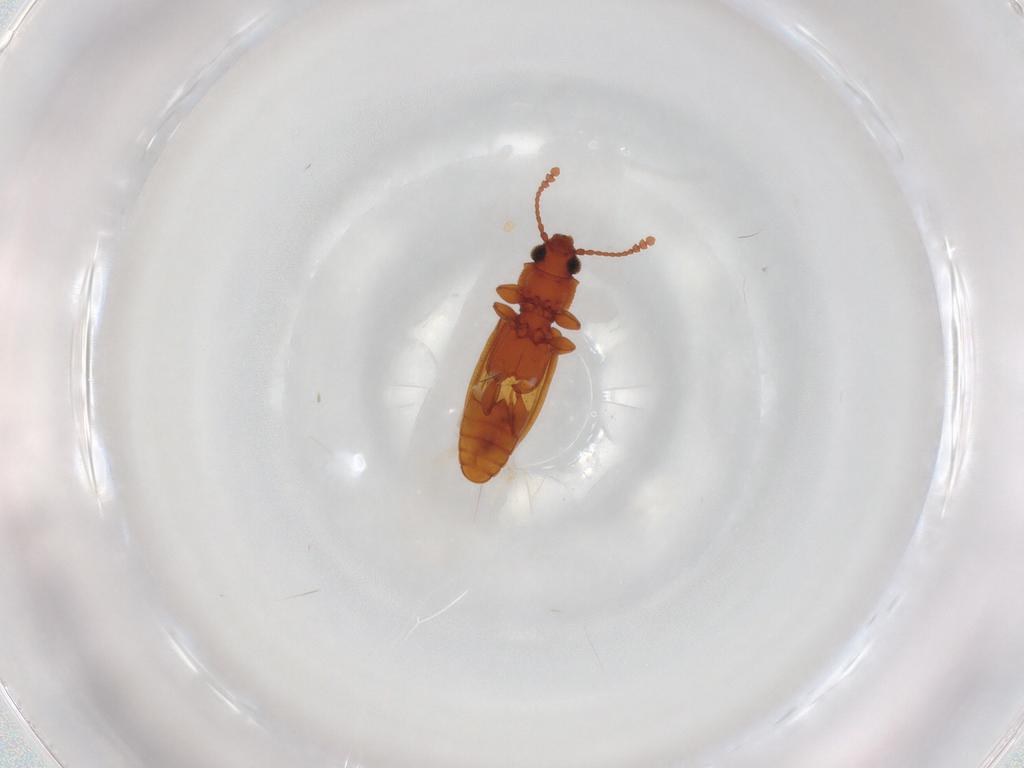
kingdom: Animalia
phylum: Arthropoda
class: Insecta
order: Coleoptera
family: Silvanidae
